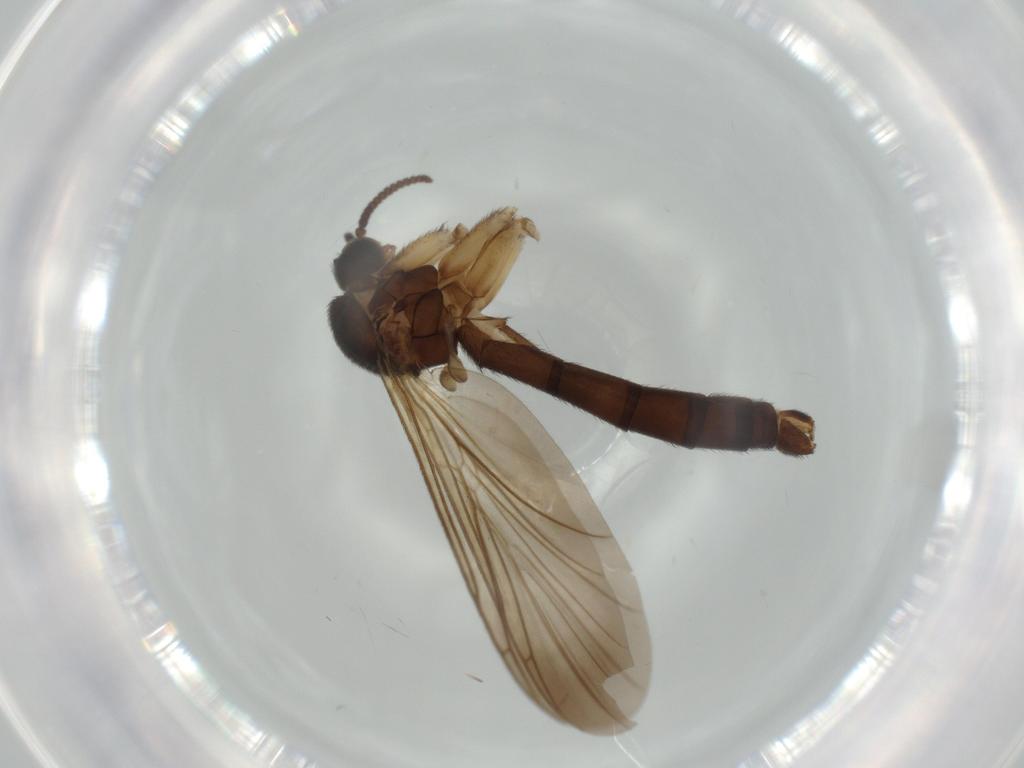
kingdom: Animalia
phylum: Arthropoda
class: Insecta
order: Diptera
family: Keroplatidae
